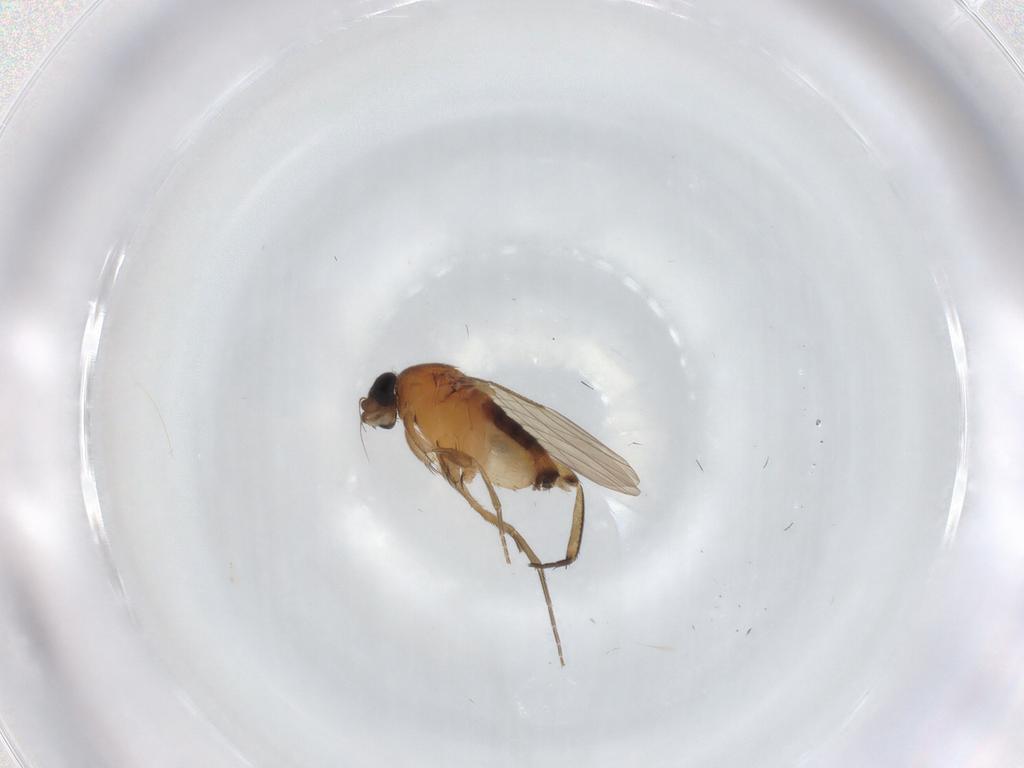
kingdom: Animalia
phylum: Arthropoda
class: Insecta
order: Diptera
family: Phoridae
